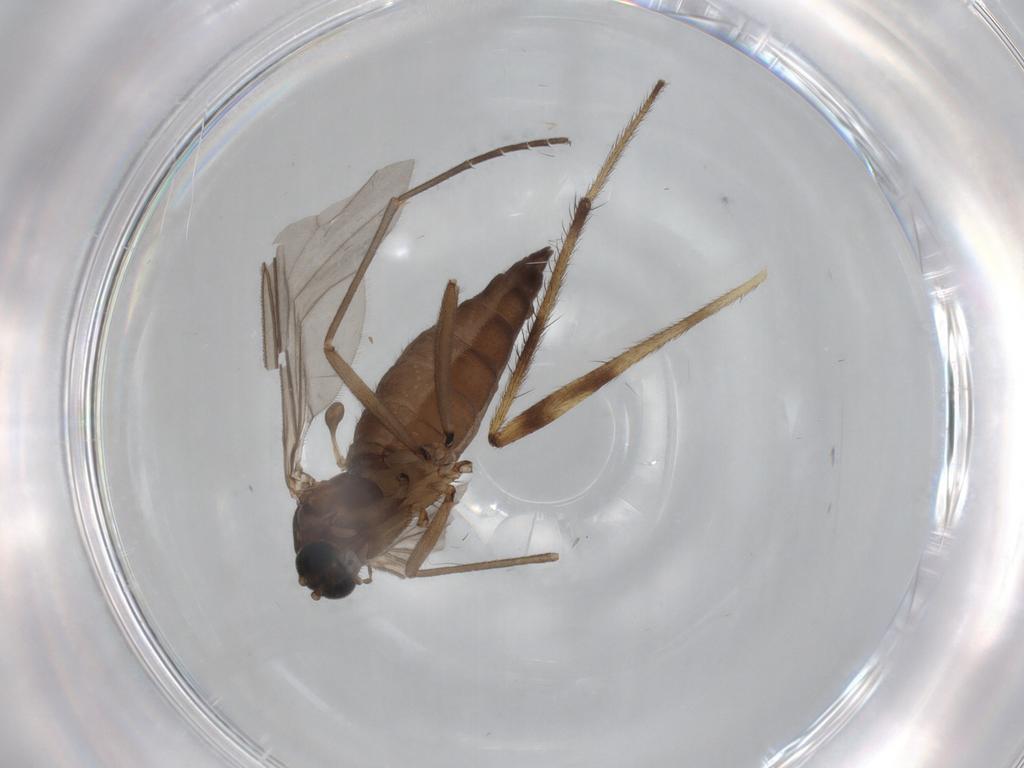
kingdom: Animalia
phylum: Arthropoda
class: Insecta
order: Diptera
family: Sciaridae
